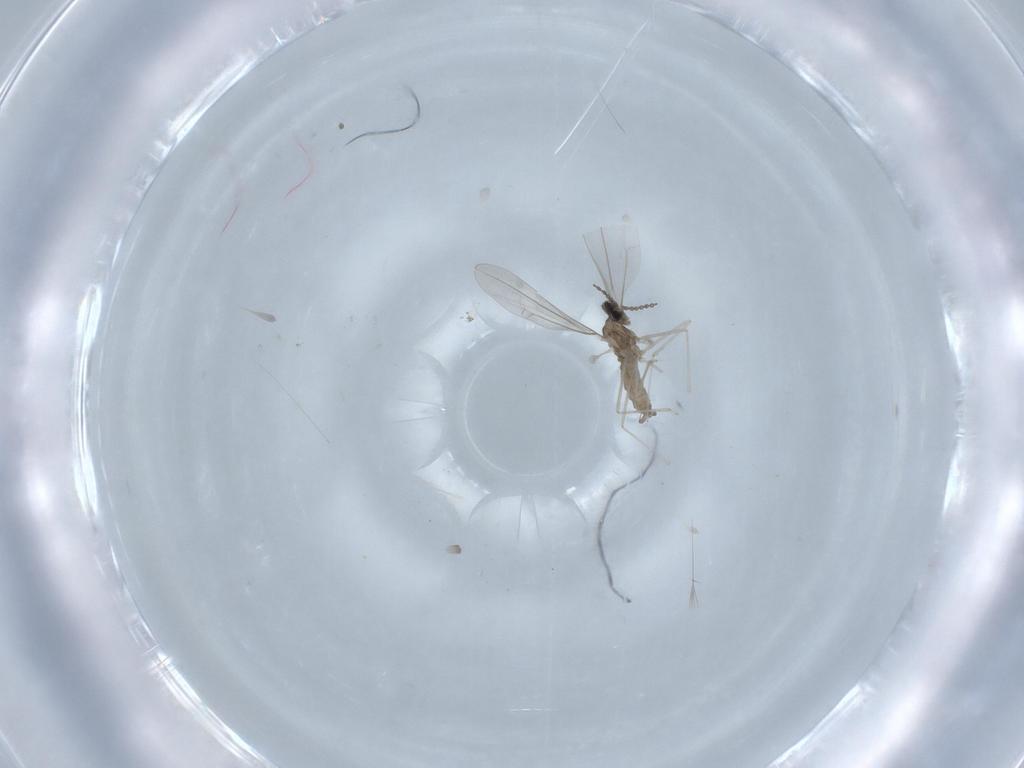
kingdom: Animalia
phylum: Arthropoda
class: Insecta
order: Diptera
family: Cecidomyiidae
